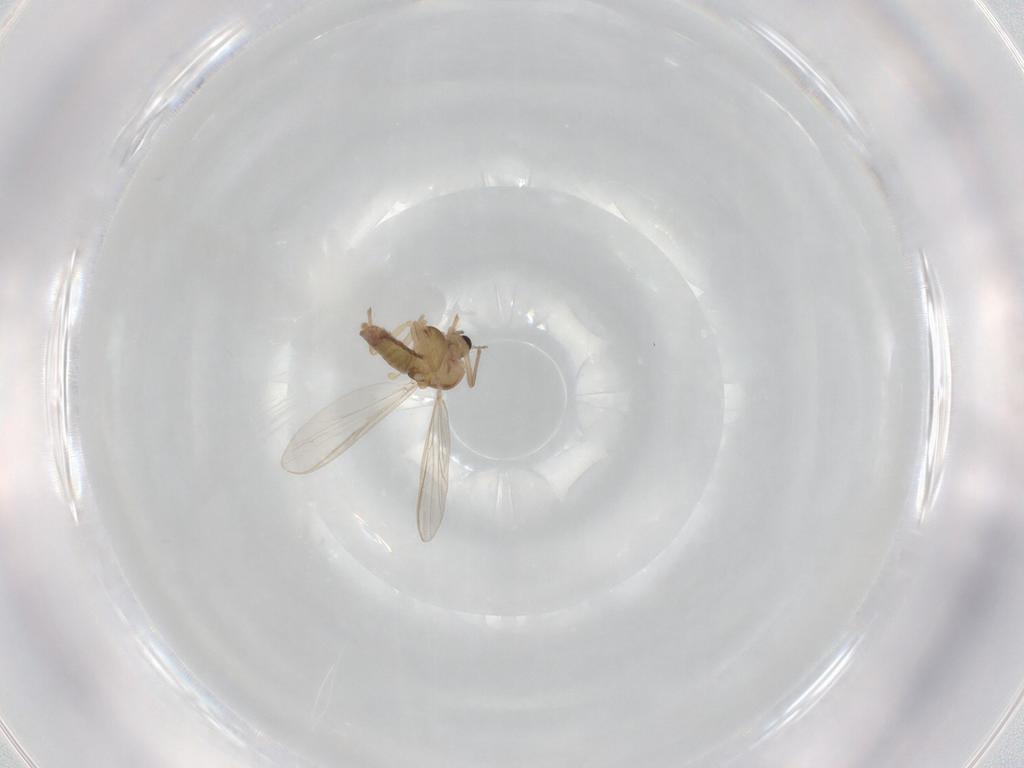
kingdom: Animalia
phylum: Arthropoda
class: Insecta
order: Diptera
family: Chironomidae
